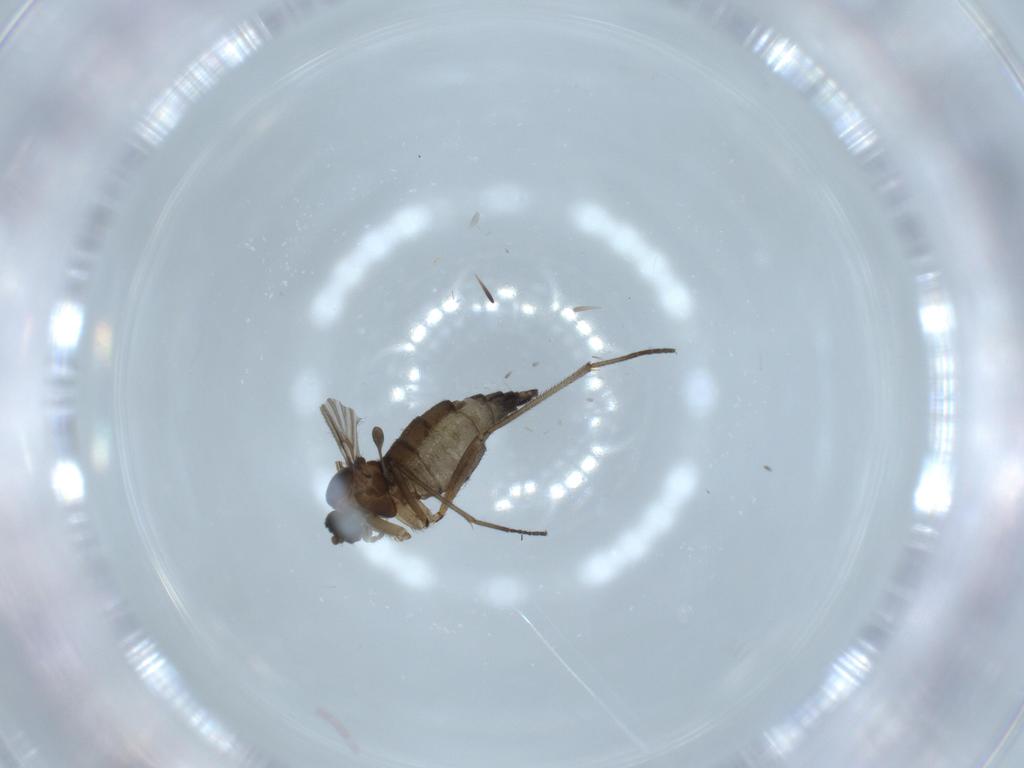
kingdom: Animalia
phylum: Arthropoda
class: Insecta
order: Diptera
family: Sciaridae
